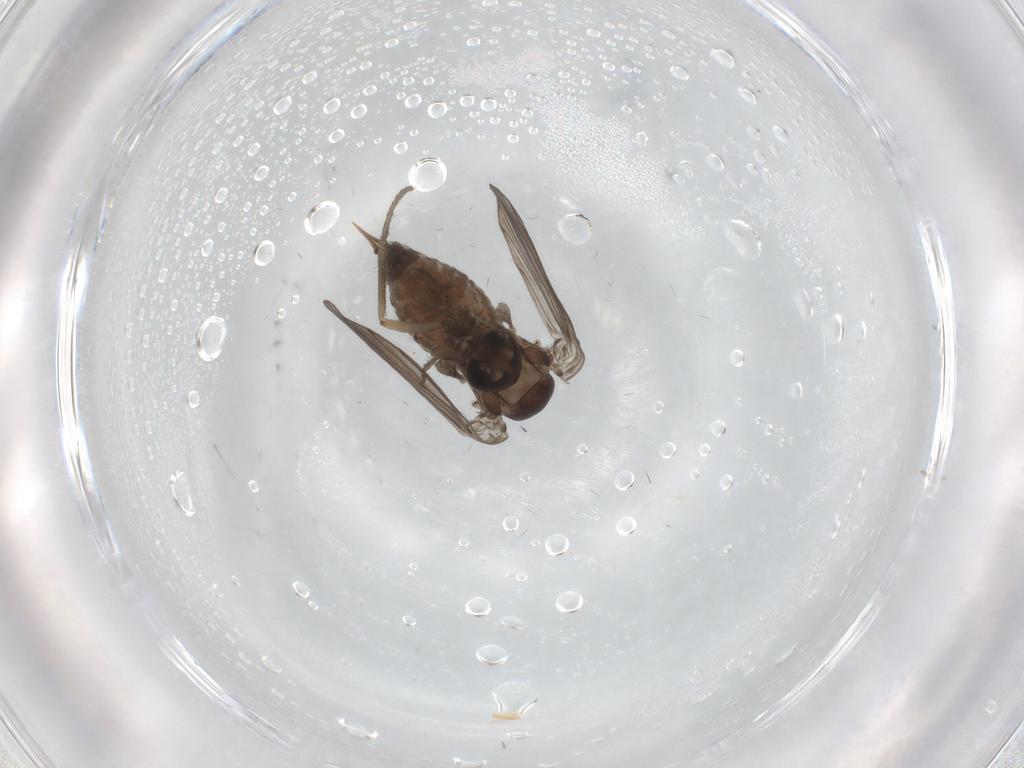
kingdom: Animalia
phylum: Arthropoda
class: Insecta
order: Diptera
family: Psychodidae
